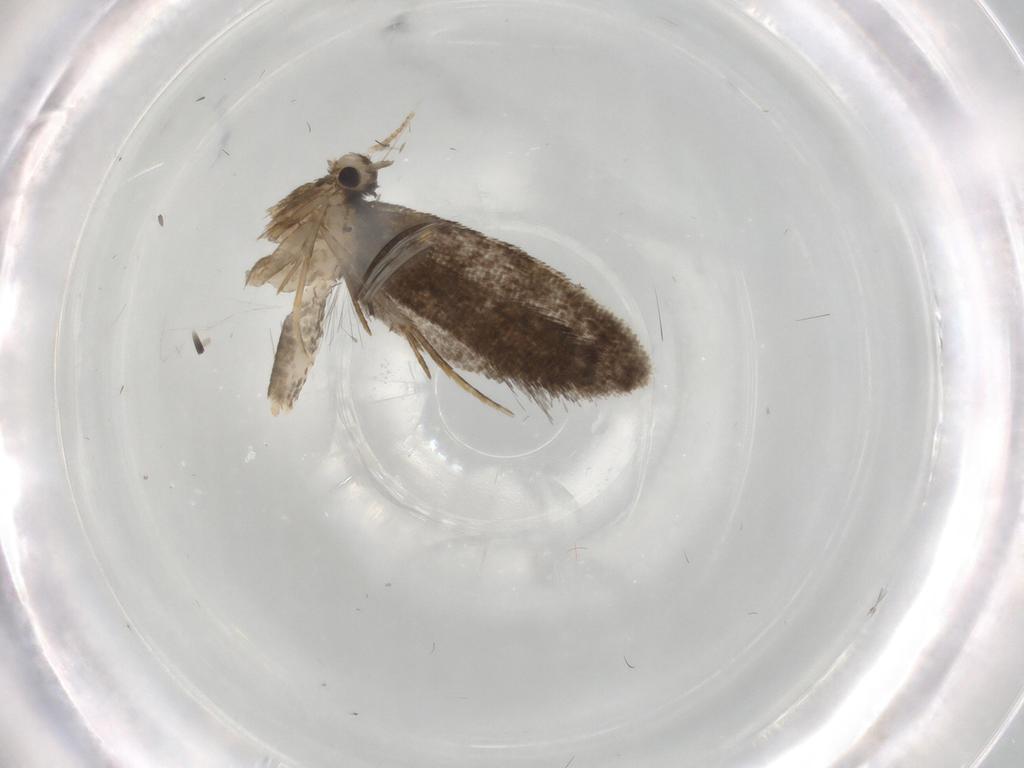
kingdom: Animalia
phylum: Arthropoda
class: Insecta
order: Lepidoptera
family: Psychidae
